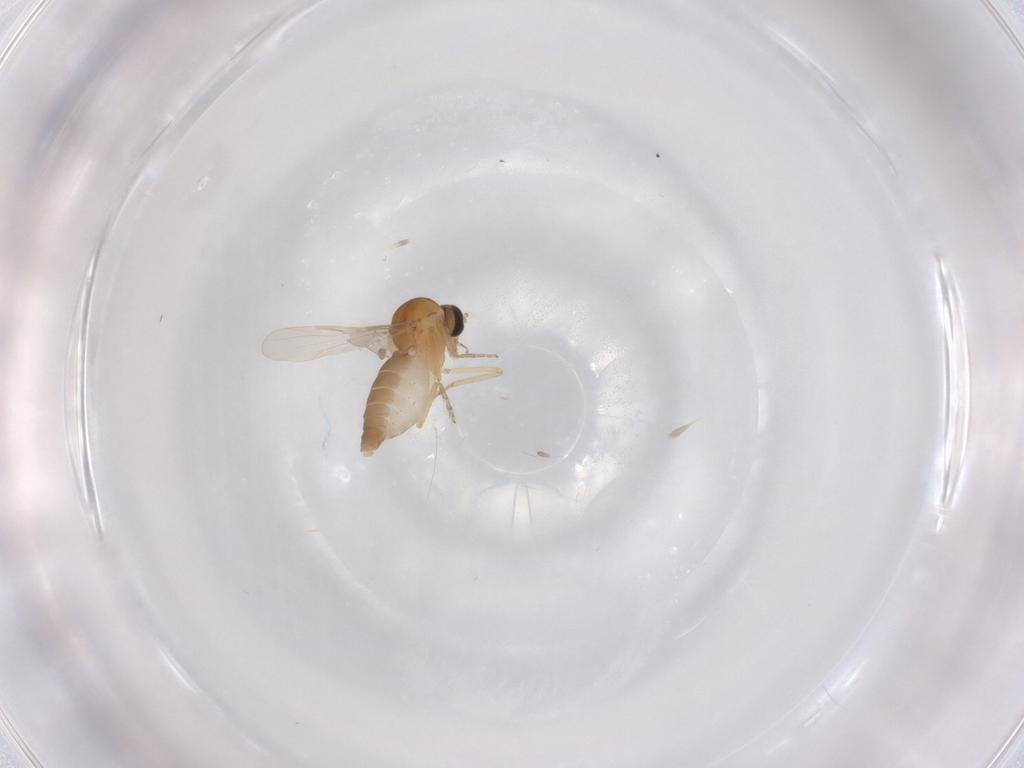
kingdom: Animalia
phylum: Arthropoda
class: Insecta
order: Diptera
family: Ceratopogonidae
